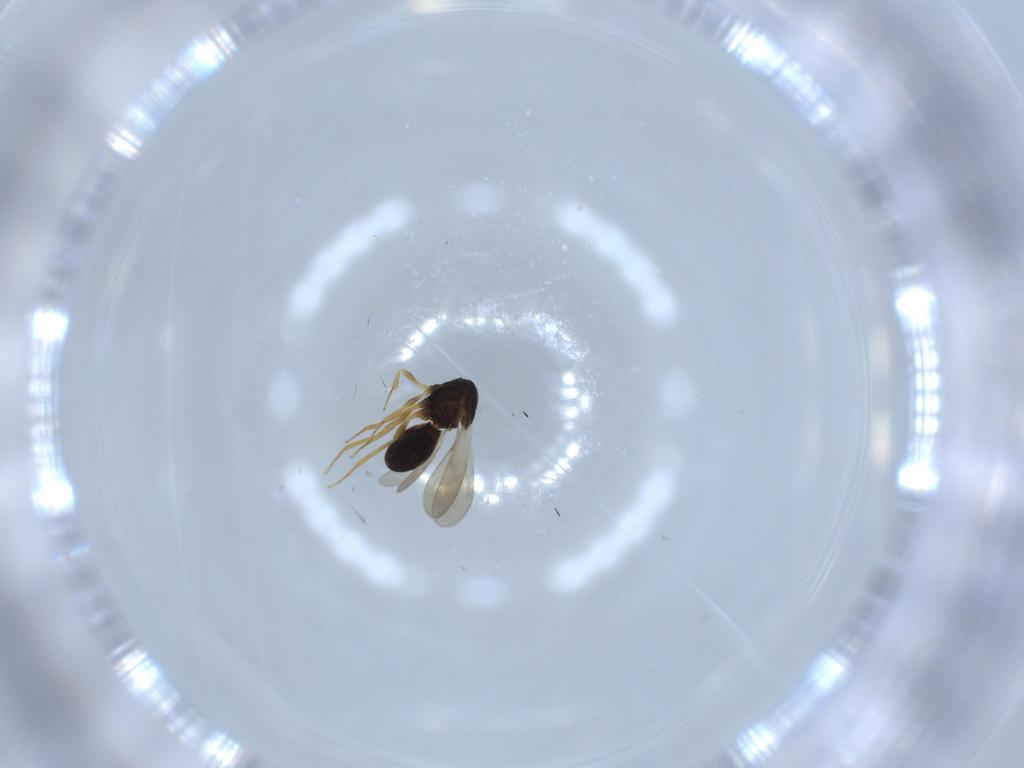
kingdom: Animalia
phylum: Arthropoda
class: Insecta
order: Hymenoptera
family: Scelionidae
